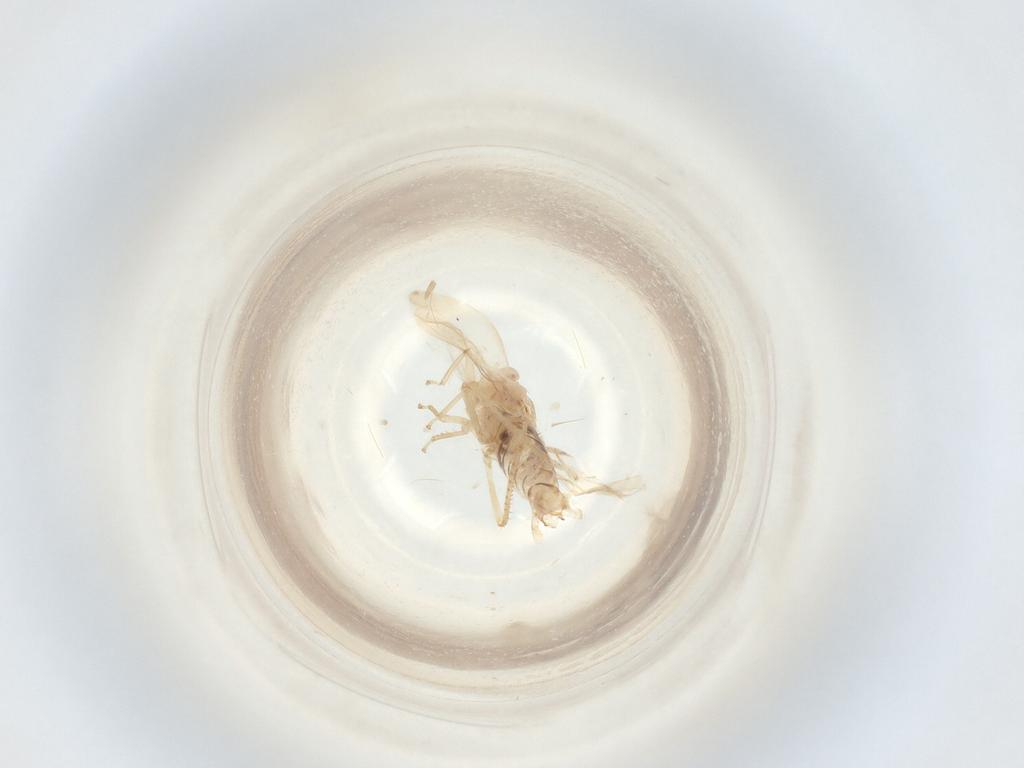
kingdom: Animalia
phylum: Arthropoda
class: Insecta
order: Hemiptera
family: Cicadellidae
